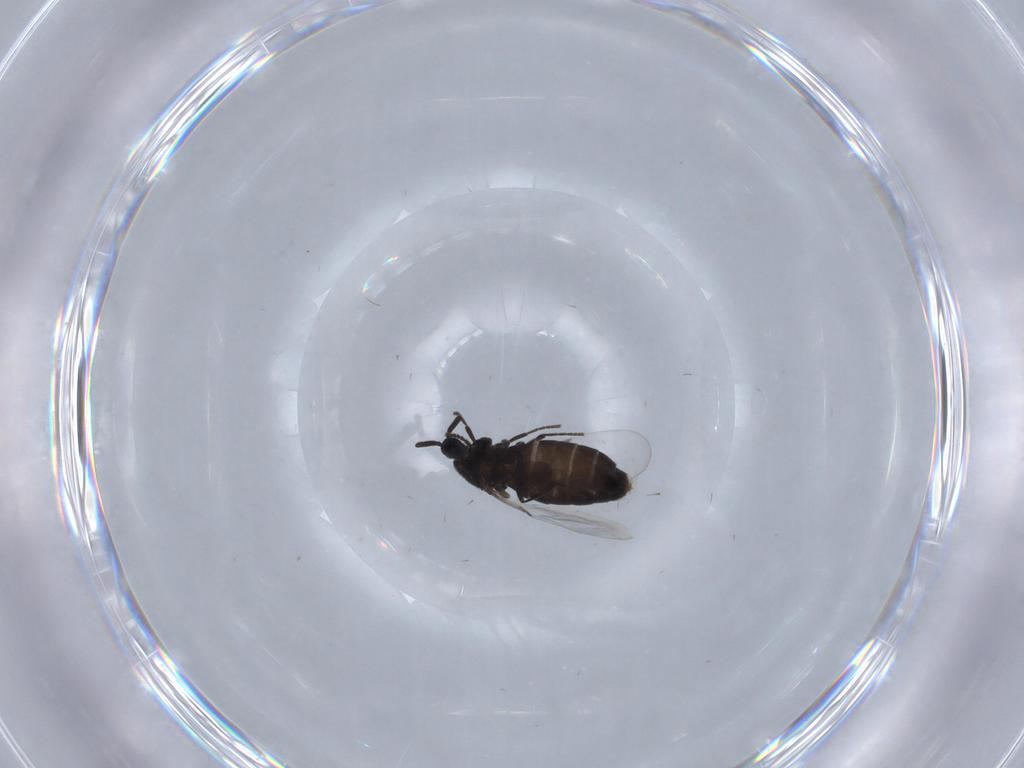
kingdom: Animalia
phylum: Arthropoda
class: Insecta
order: Diptera
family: Scatopsidae
